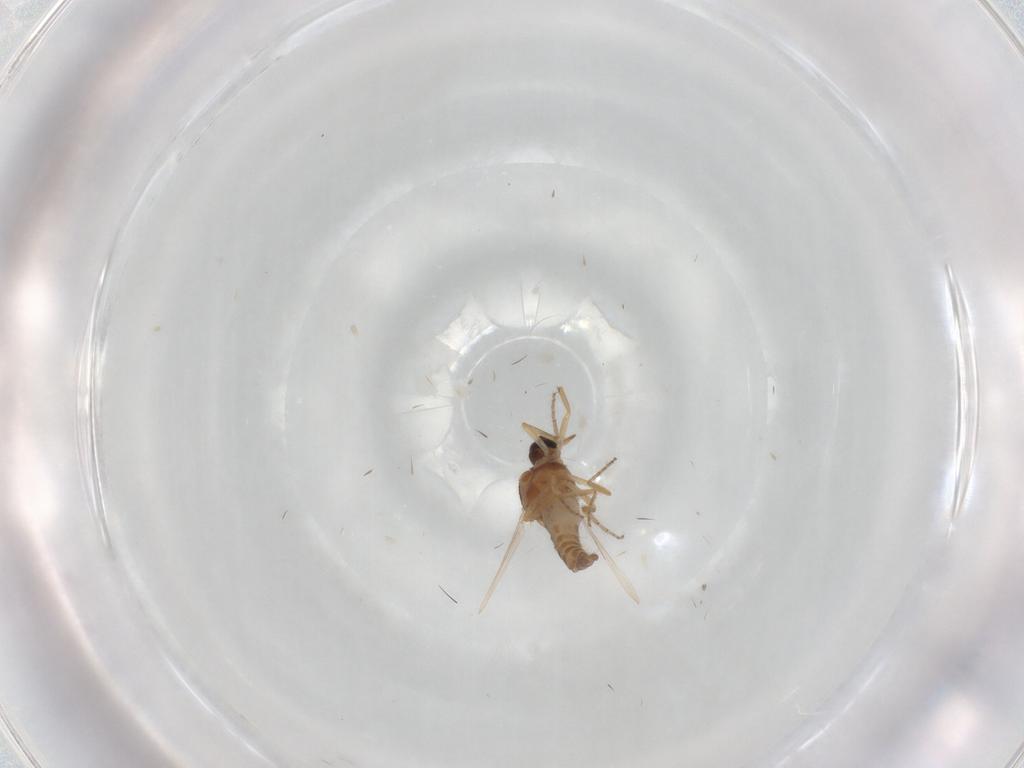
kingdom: Animalia
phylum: Arthropoda
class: Insecta
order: Diptera
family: Ceratopogonidae
